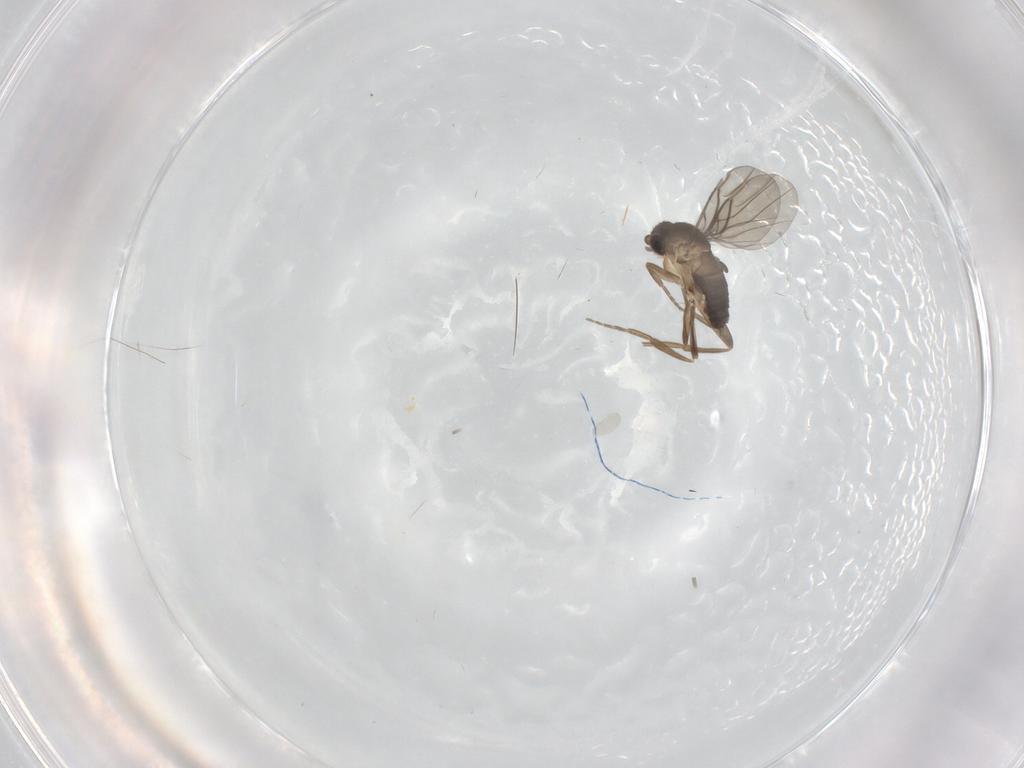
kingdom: Animalia
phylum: Arthropoda
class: Insecta
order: Diptera
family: Phoridae
